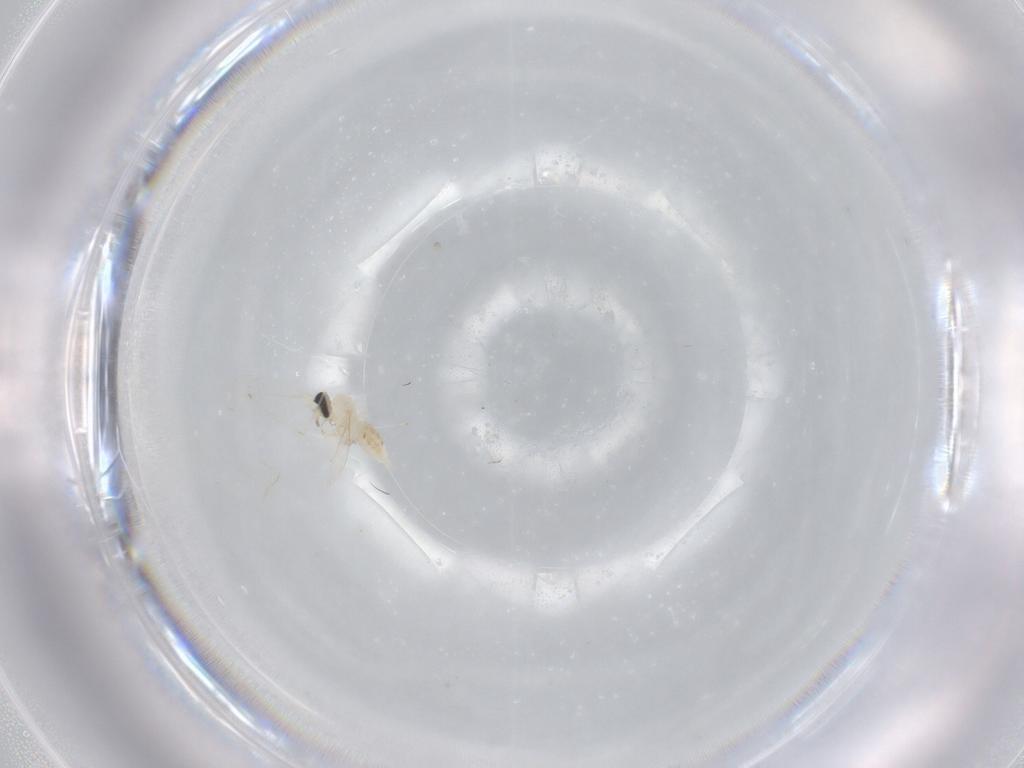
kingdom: Animalia
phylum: Arthropoda
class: Insecta
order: Diptera
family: Cecidomyiidae
